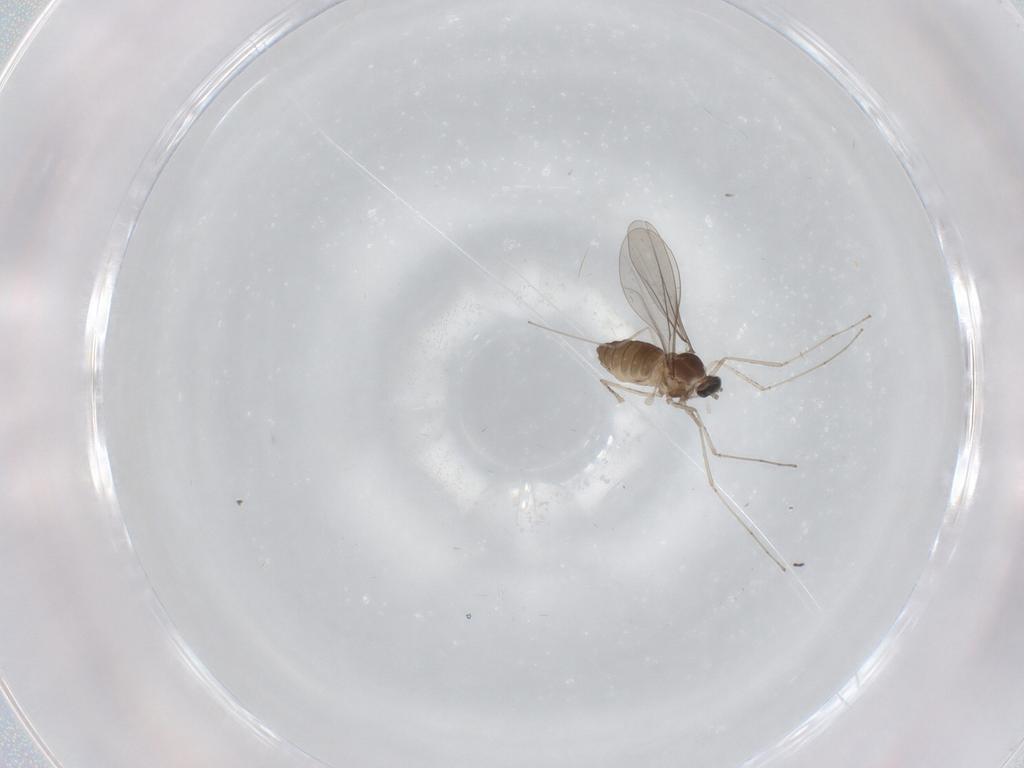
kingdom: Animalia
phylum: Arthropoda
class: Insecta
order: Diptera
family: Cecidomyiidae
